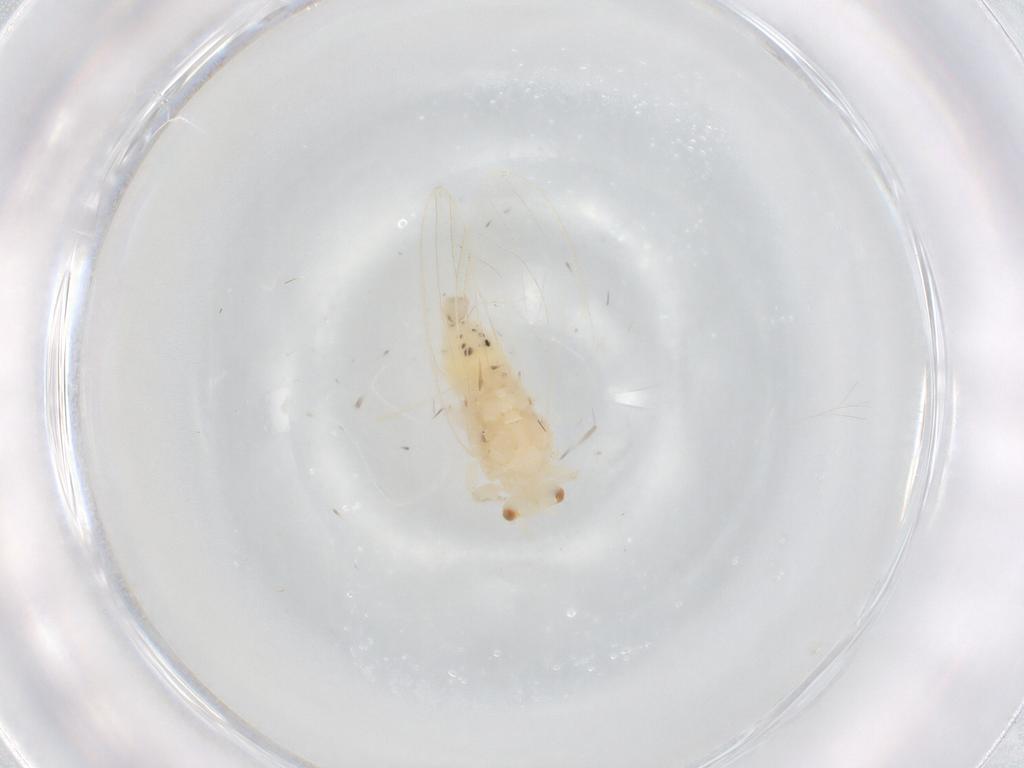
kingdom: Animalia
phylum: Arthropoda
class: Insecta
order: Hemiptera
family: Aphididae
